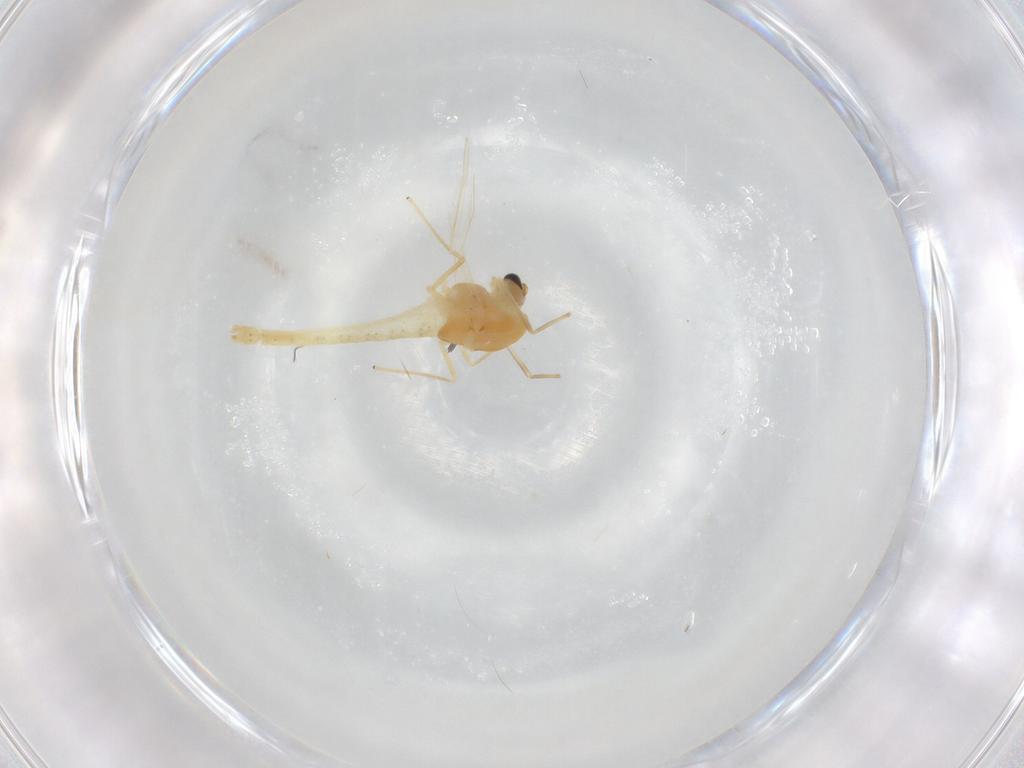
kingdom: Animalia
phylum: Arthropoda
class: Insecta
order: Diptera
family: Chironomidae
